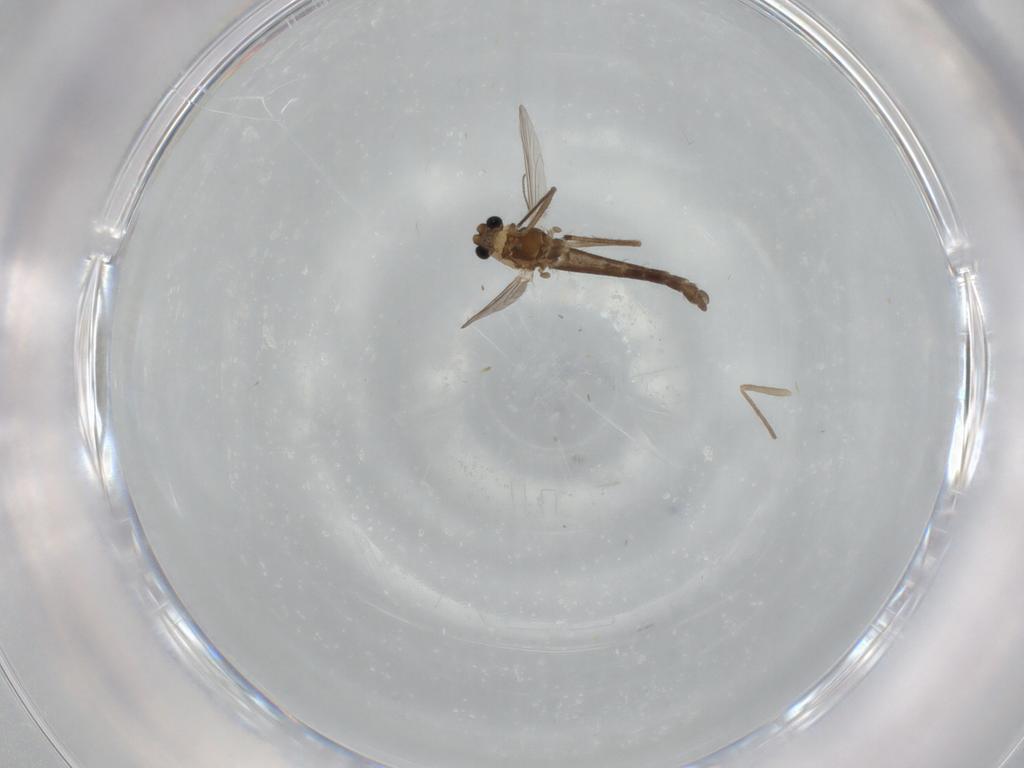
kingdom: Animalia
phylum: Arthropoda
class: Insecta
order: Diptera
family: Chironomidae
